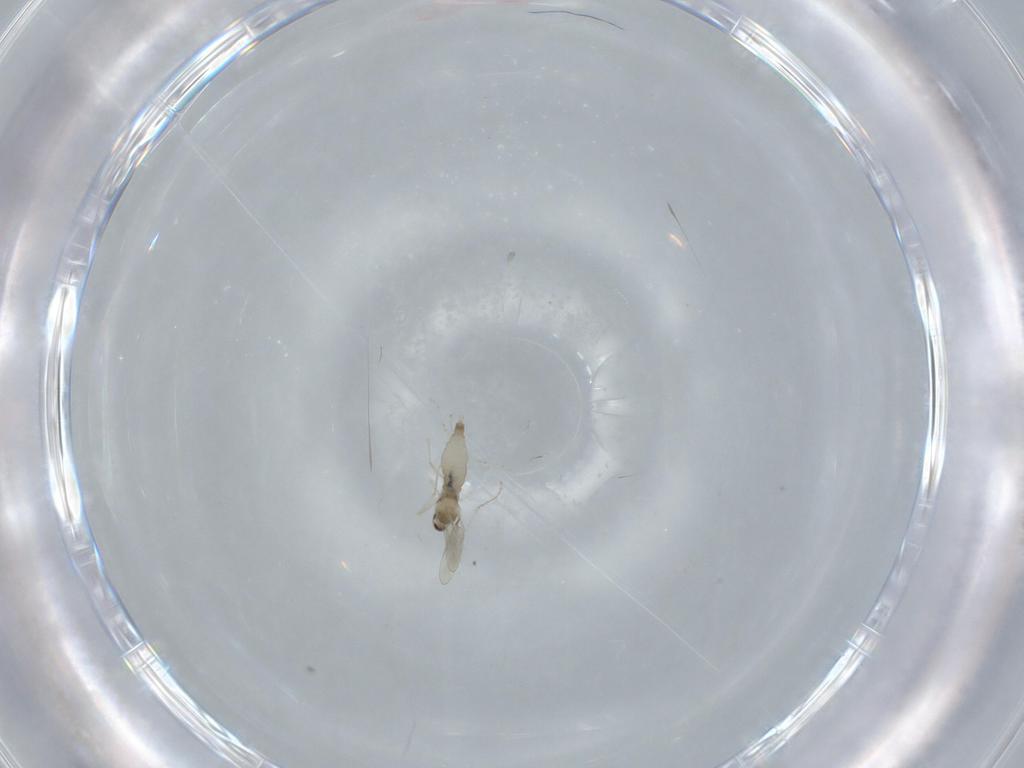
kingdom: Animalia
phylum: Arthropoda
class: Insecta
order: Diptera
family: Cecidomyiidae
